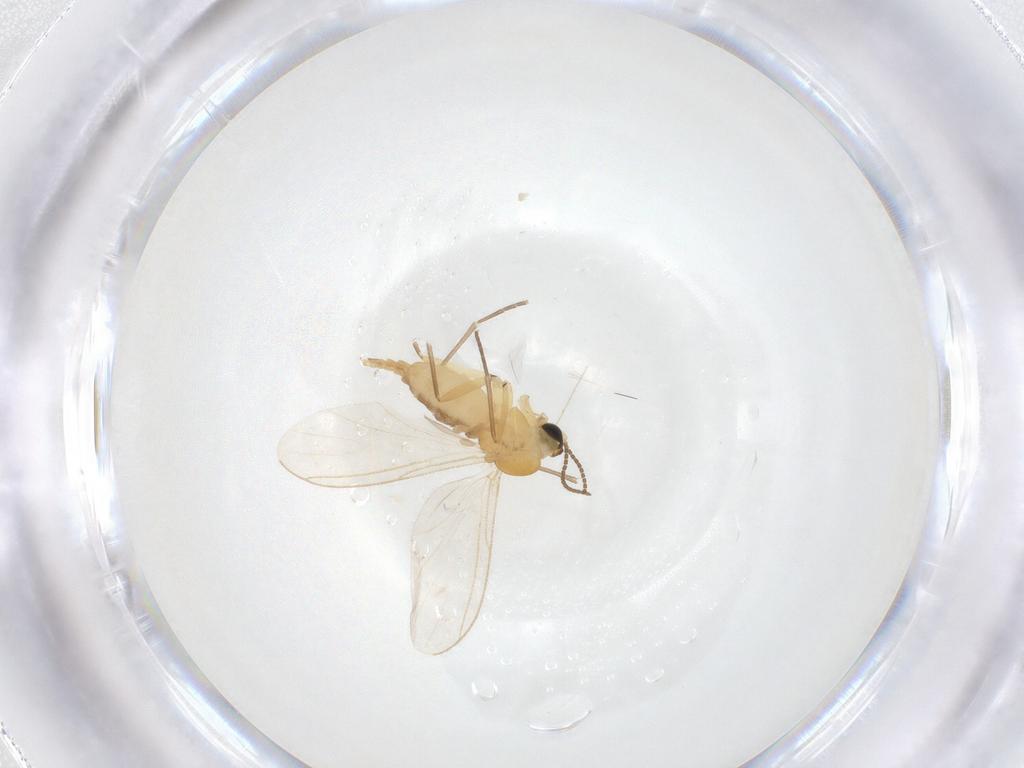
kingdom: Animalia
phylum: Arthropoda
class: Insecta
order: Diptera
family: Sciaridae
